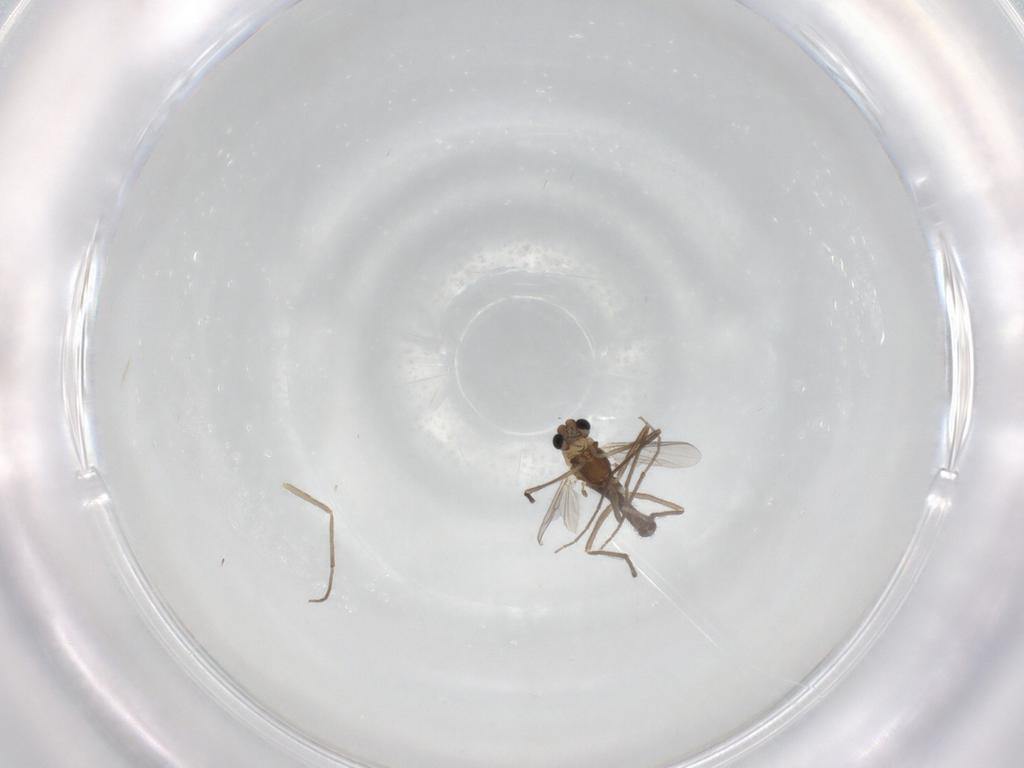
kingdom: Animalia
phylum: Arthropoda
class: Insecta
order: Diptera
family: Chironomidae
